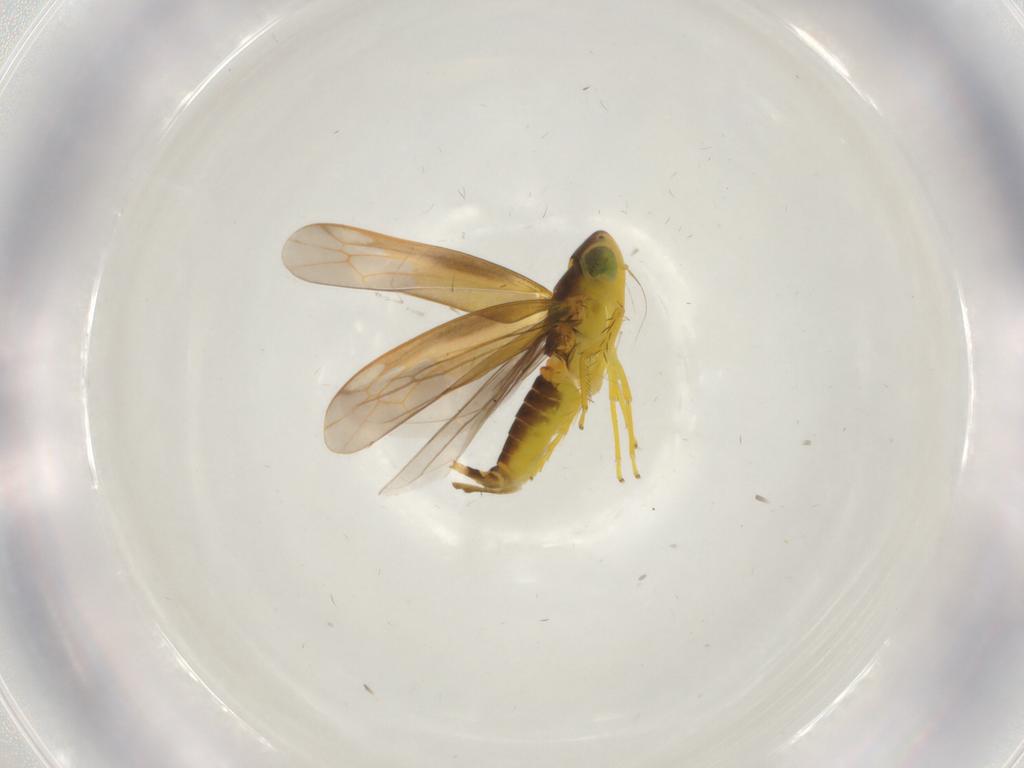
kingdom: Animalia
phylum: Arthropoda
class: Insecta
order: Hemiptera
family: Cicadellidae
